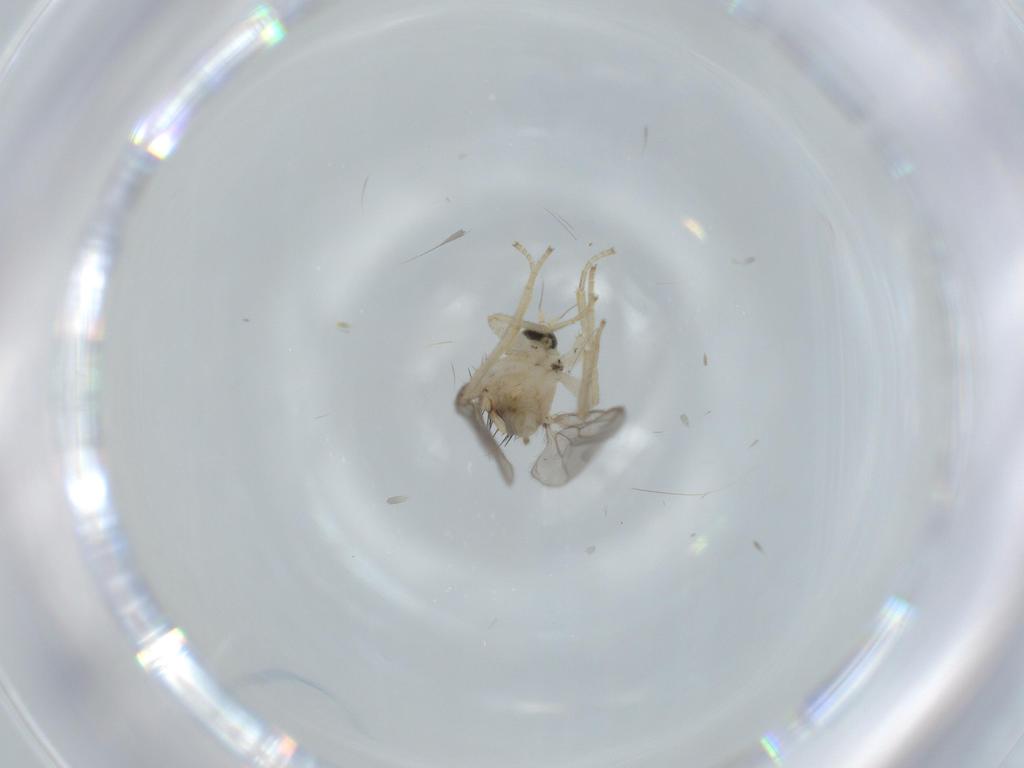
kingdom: Animalia
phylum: Arthropoda
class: Insecta
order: Diptera
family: Hybotidae
